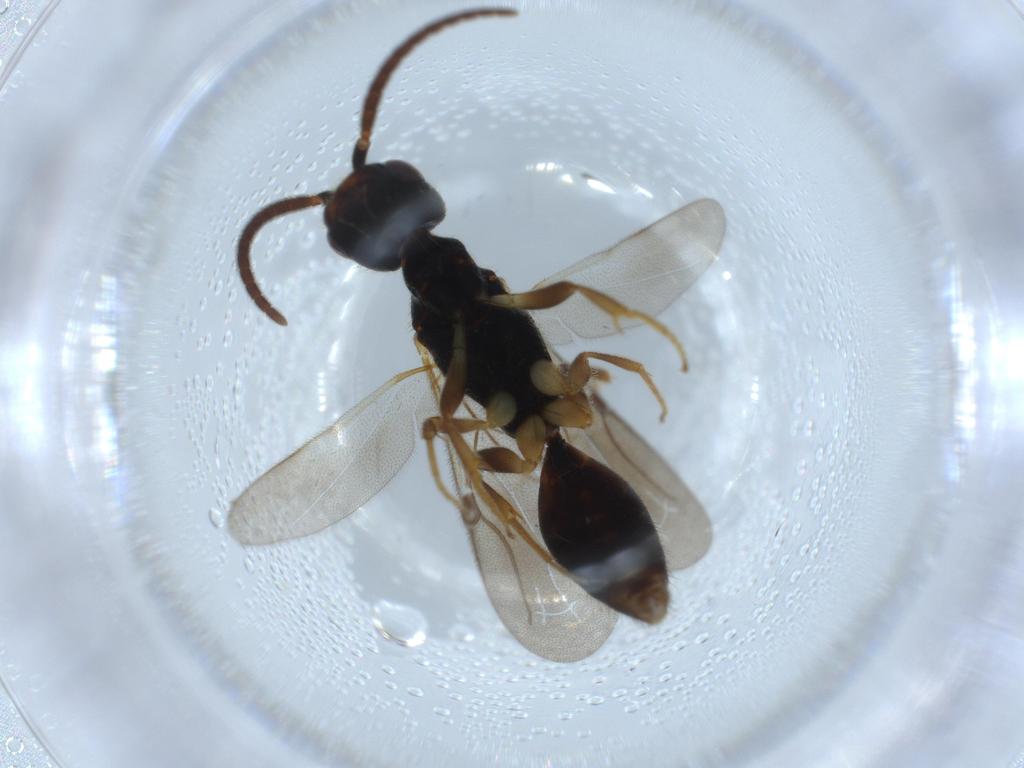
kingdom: Animalia
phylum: Arthropoda
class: Insecta
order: Hymenoptera
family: Bethylidae
